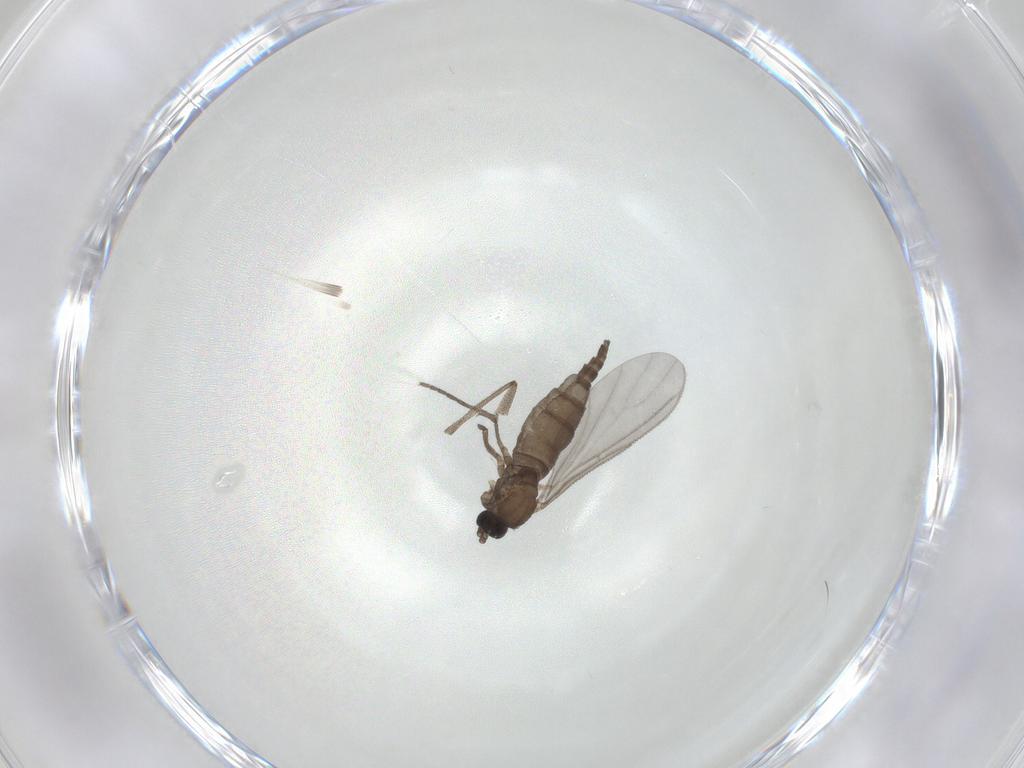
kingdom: Animalia
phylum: Arthropoda
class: Insecta
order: Diptera
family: Sciaridae
